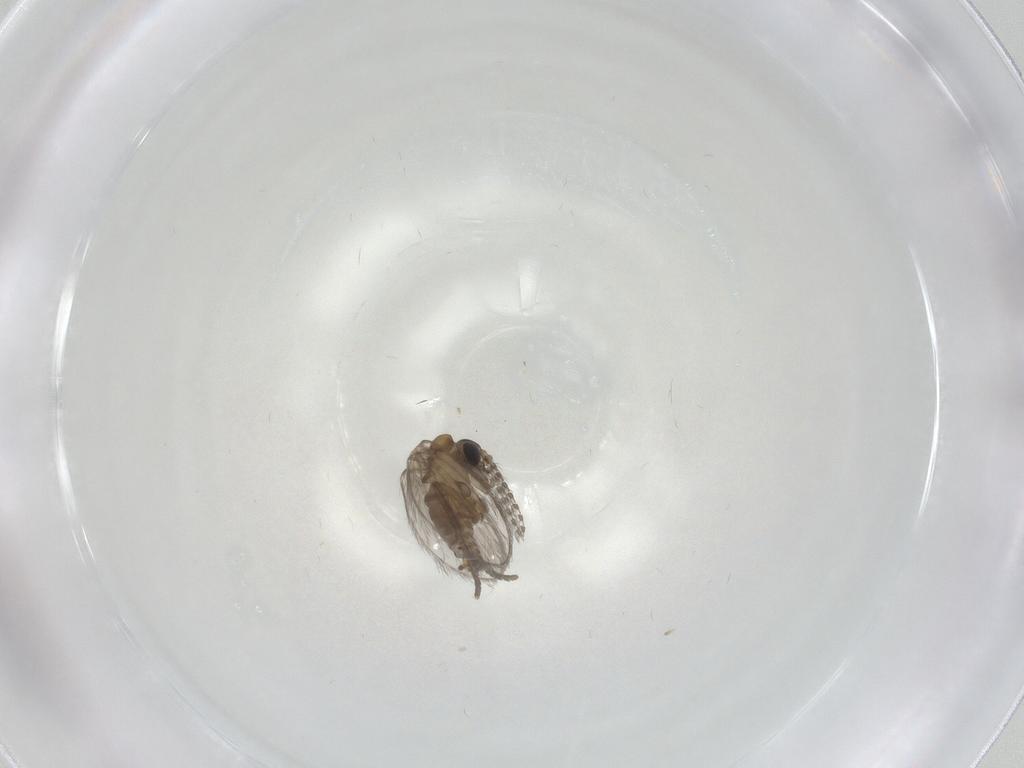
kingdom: Animalia
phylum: Arthropoda
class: Insecta
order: Diptera
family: Psychodidae
